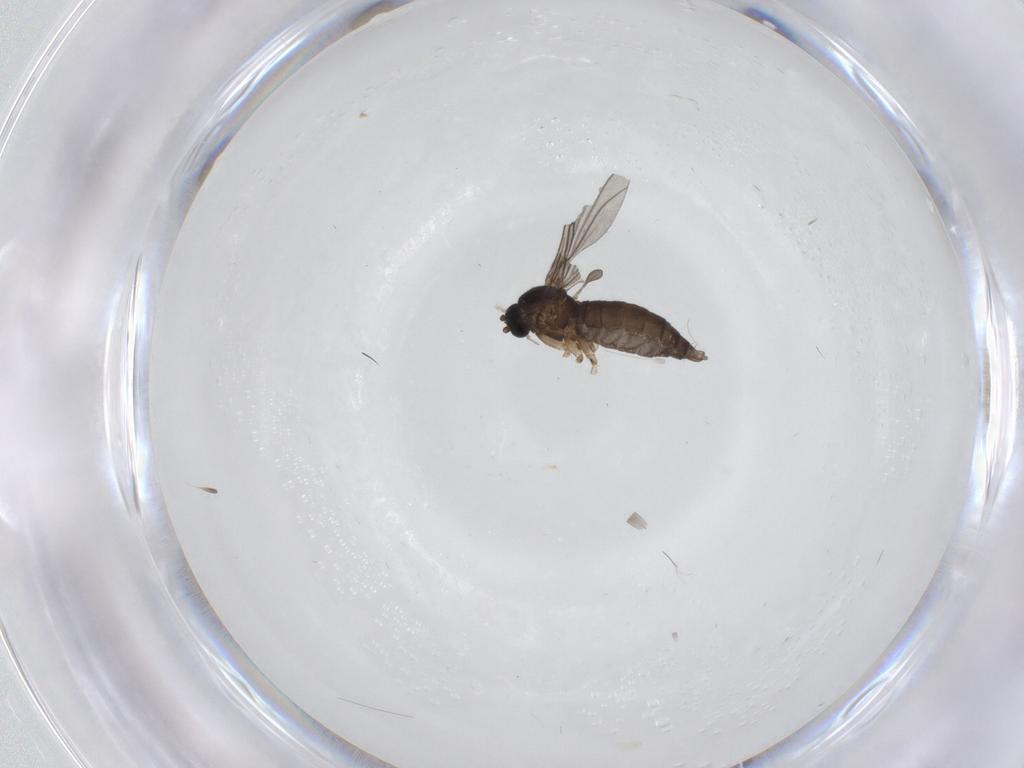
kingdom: Animalia
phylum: Arthropoda
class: Insecta
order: Diptera
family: Sciaridae
